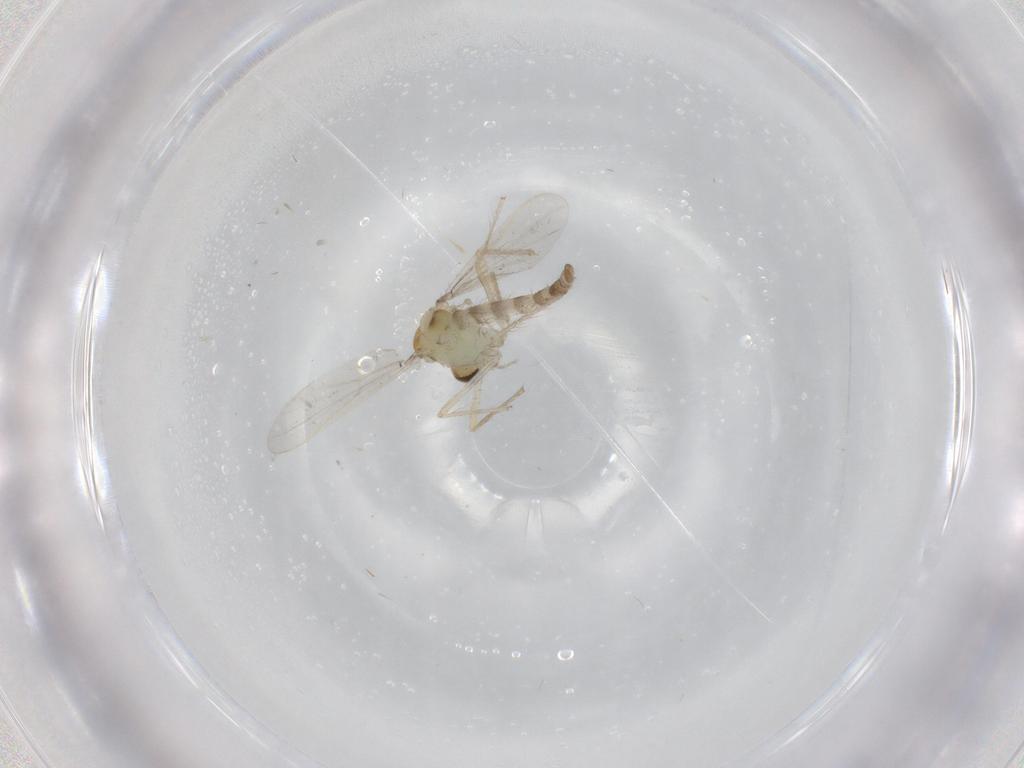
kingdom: Animalia
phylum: Arthropoda
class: Insecta
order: Diptera
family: Chironomidae
